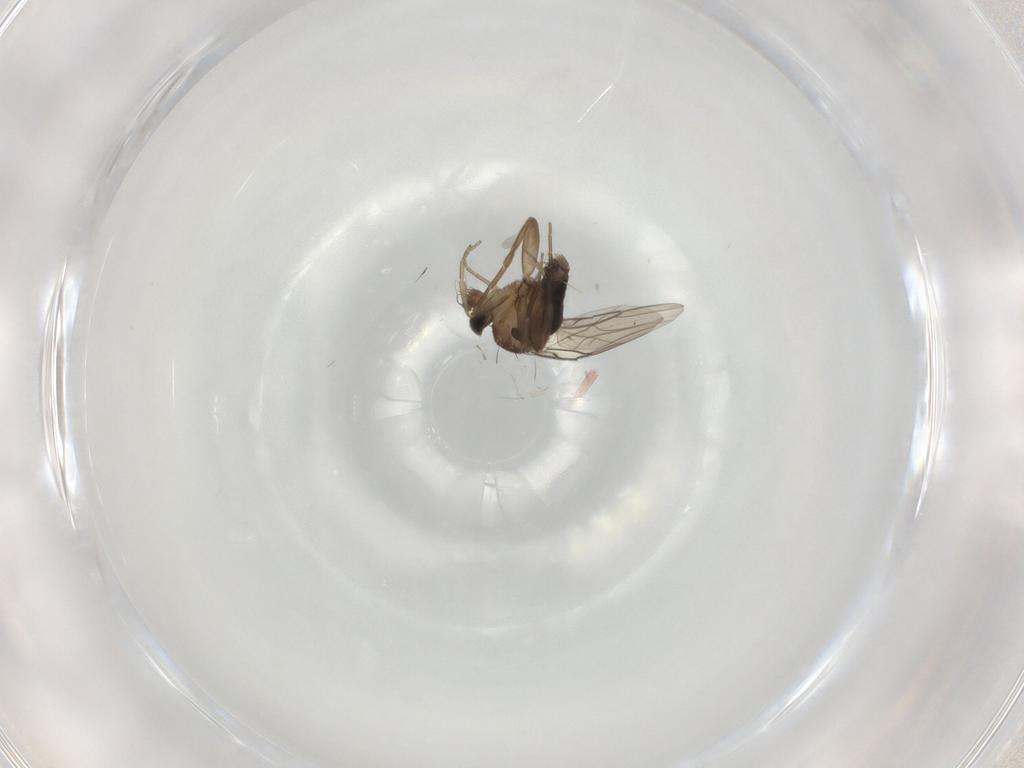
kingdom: Animalia
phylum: Arthropoda
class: Insecta
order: Diptera
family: Phoridae
